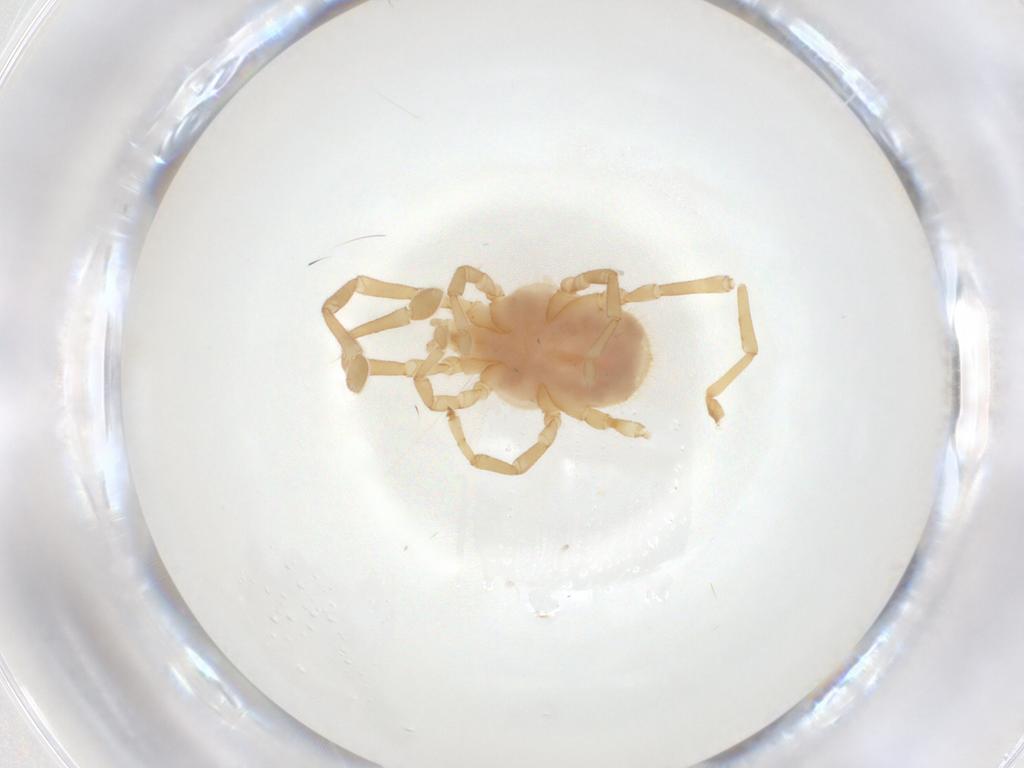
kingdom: Animalia
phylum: Arthropoda
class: Arachnida
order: Trombidiformes
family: Erythraeidae
